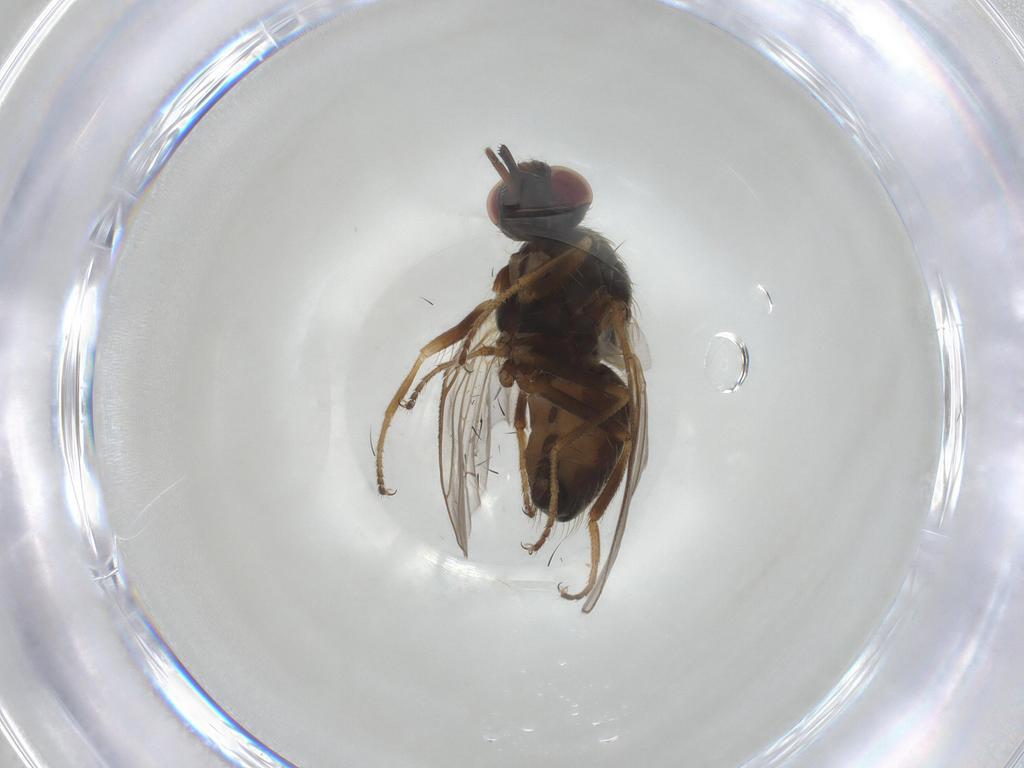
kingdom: Animalia
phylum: Arthropoda
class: Insecta
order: Diptera
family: Muscidae
